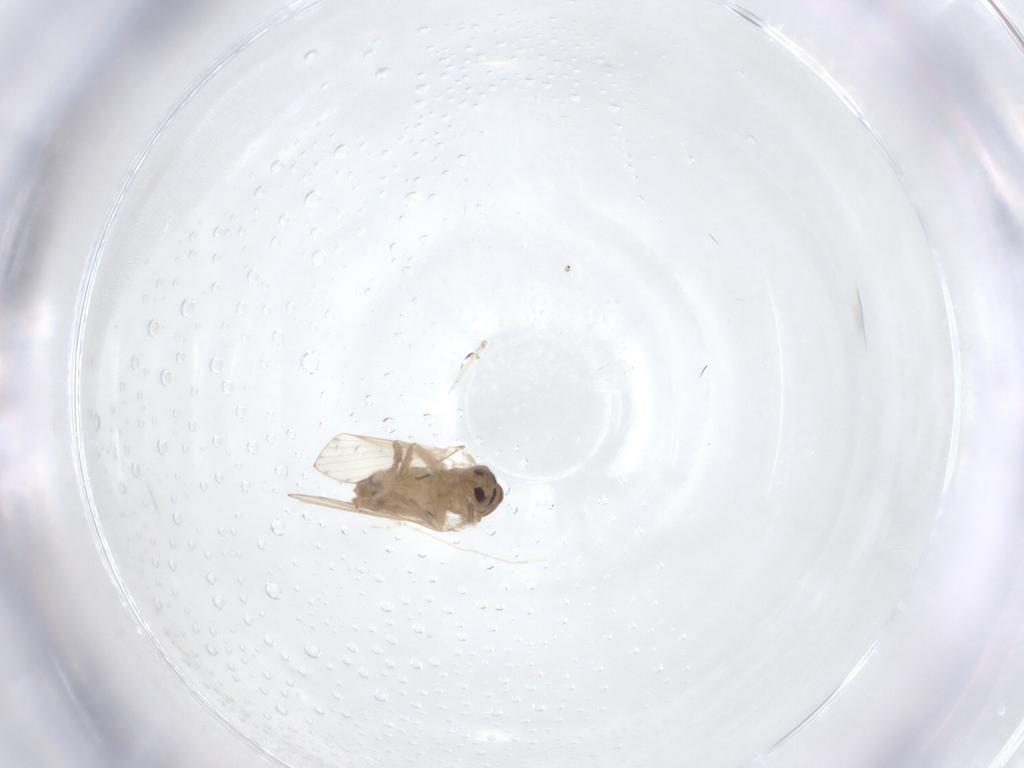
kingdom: Animalia
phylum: Arthropoda
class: Insecta
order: Diptera
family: Psychodidae
